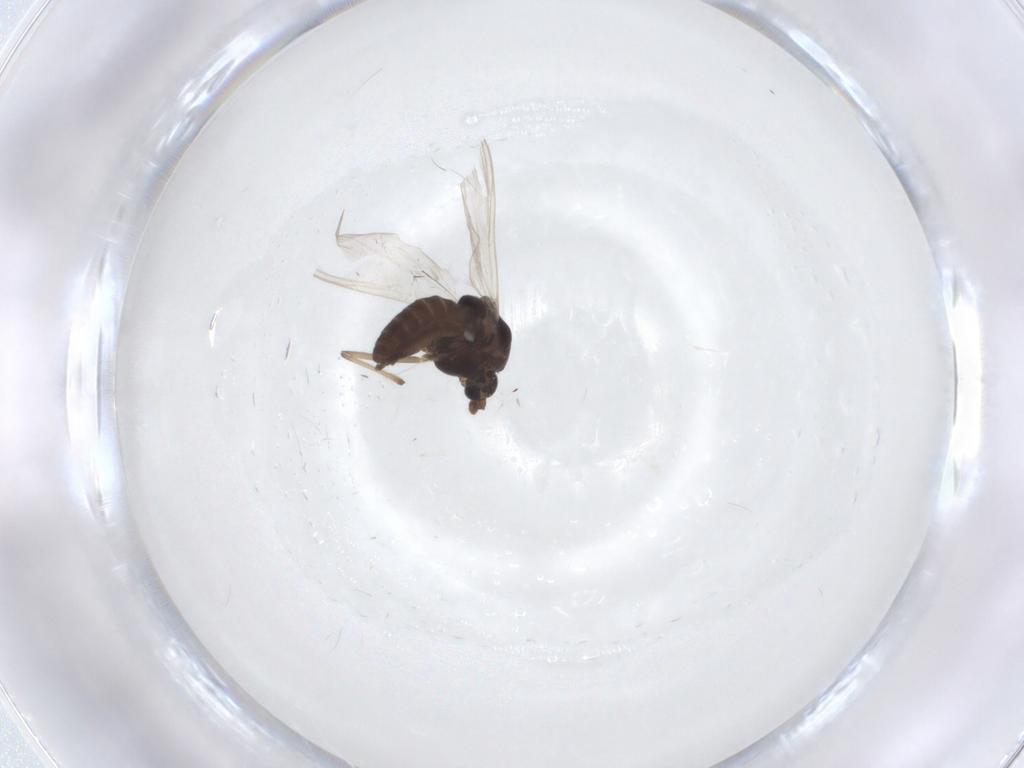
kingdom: Animalia
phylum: Arthropoda
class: Insecta
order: Diptera
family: Chironomidae
